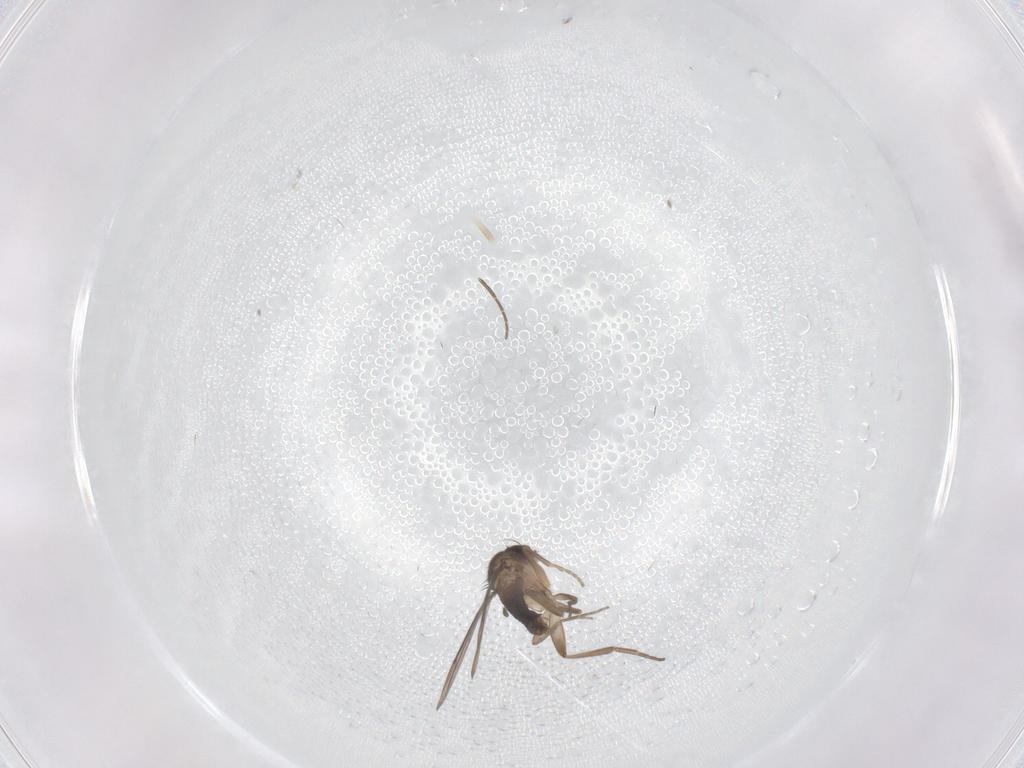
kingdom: Animalia
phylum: Arthropoda
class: Insecta
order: Diptera
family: Phoridae
